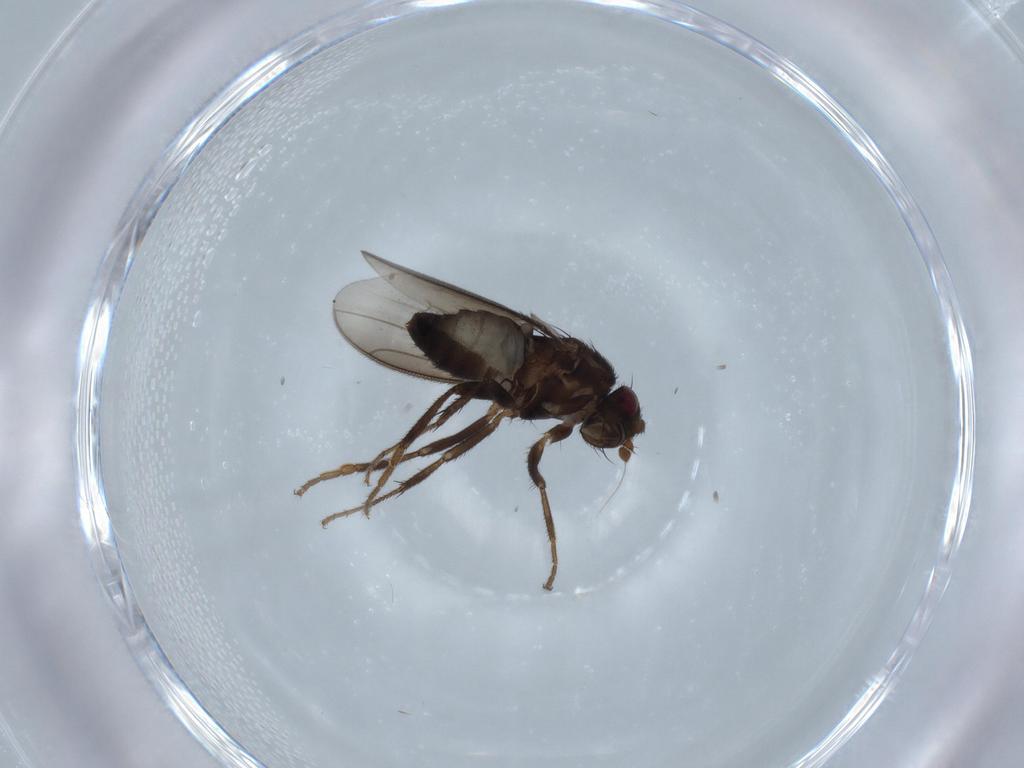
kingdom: Animalia
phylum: Arthropoda
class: Insecta
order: Diptera
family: Sphaeroceridae
